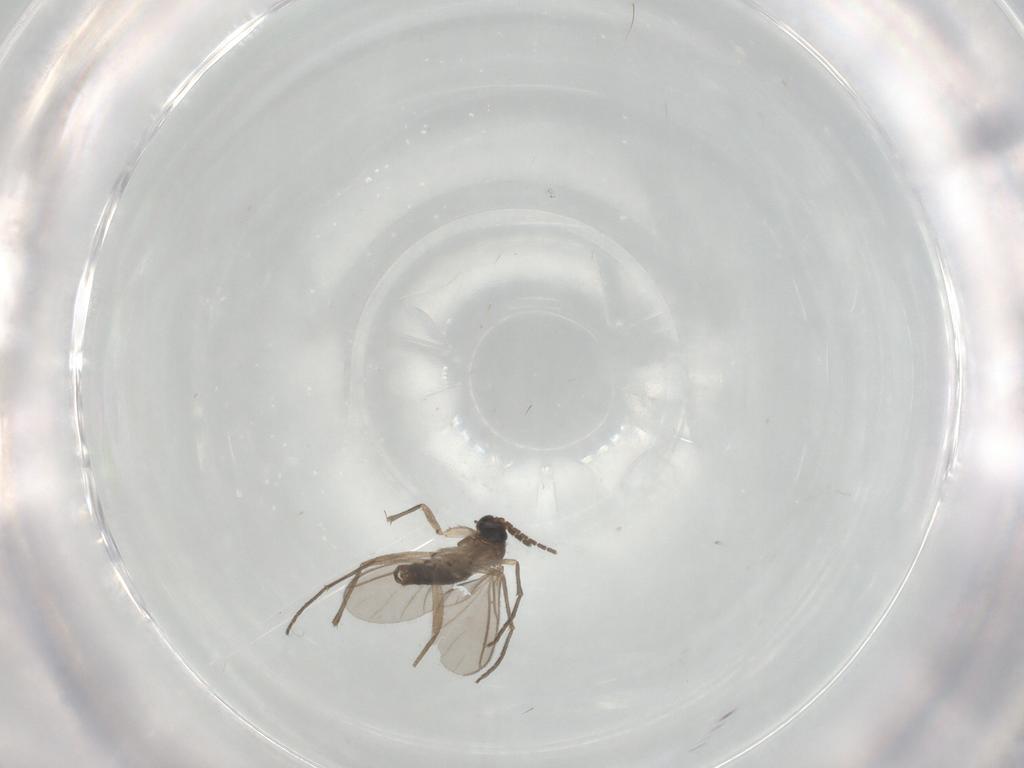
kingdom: Animalia
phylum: Arthropoda
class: Insecta
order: Diptera
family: Sciaridae
